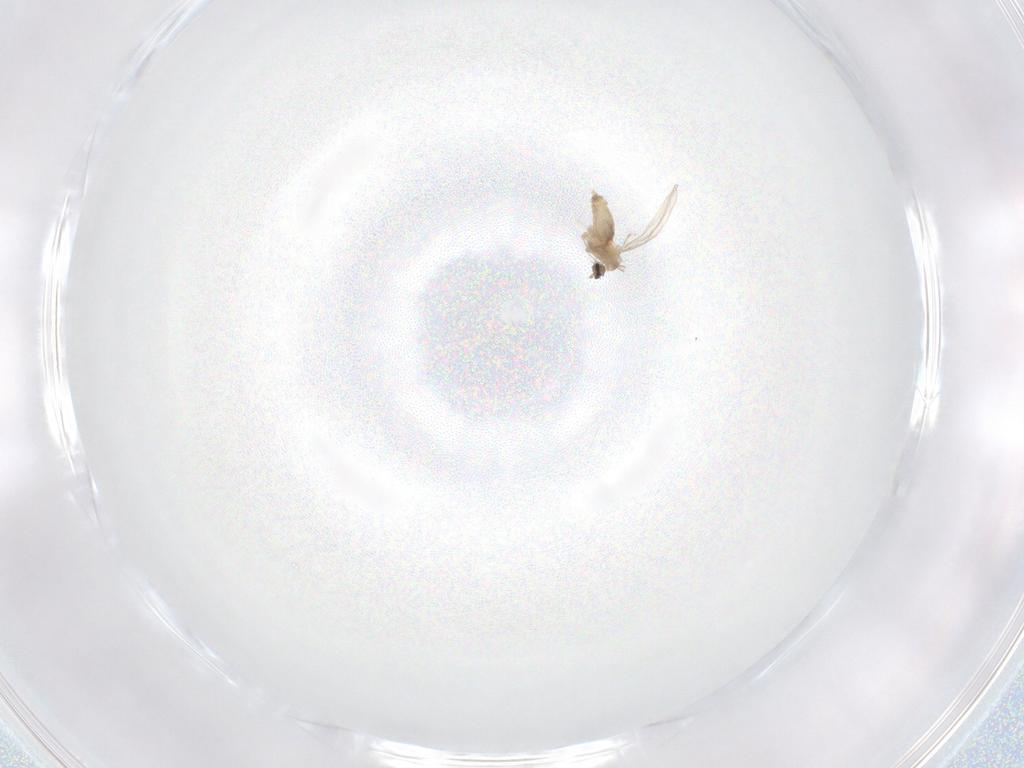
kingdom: Animalia
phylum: Arthropoda
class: Insecta
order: Diptera
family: Cecidomyiidae
